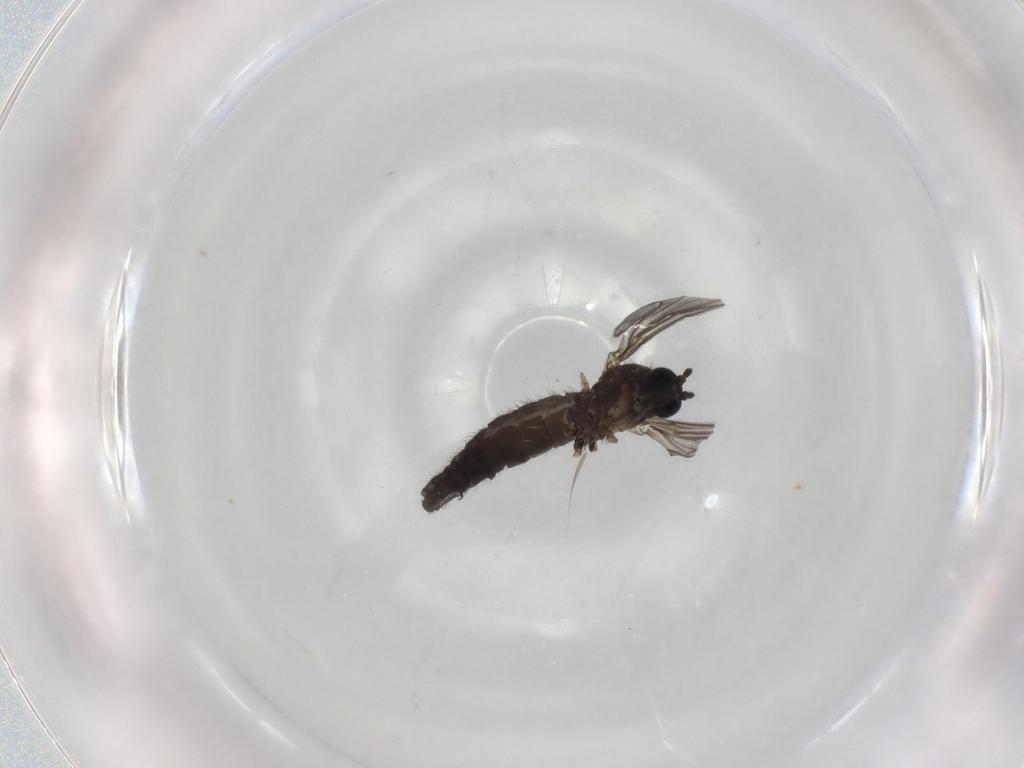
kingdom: Animalia
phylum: Arthropoda
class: Insecta
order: Diptera
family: Sciaridae
